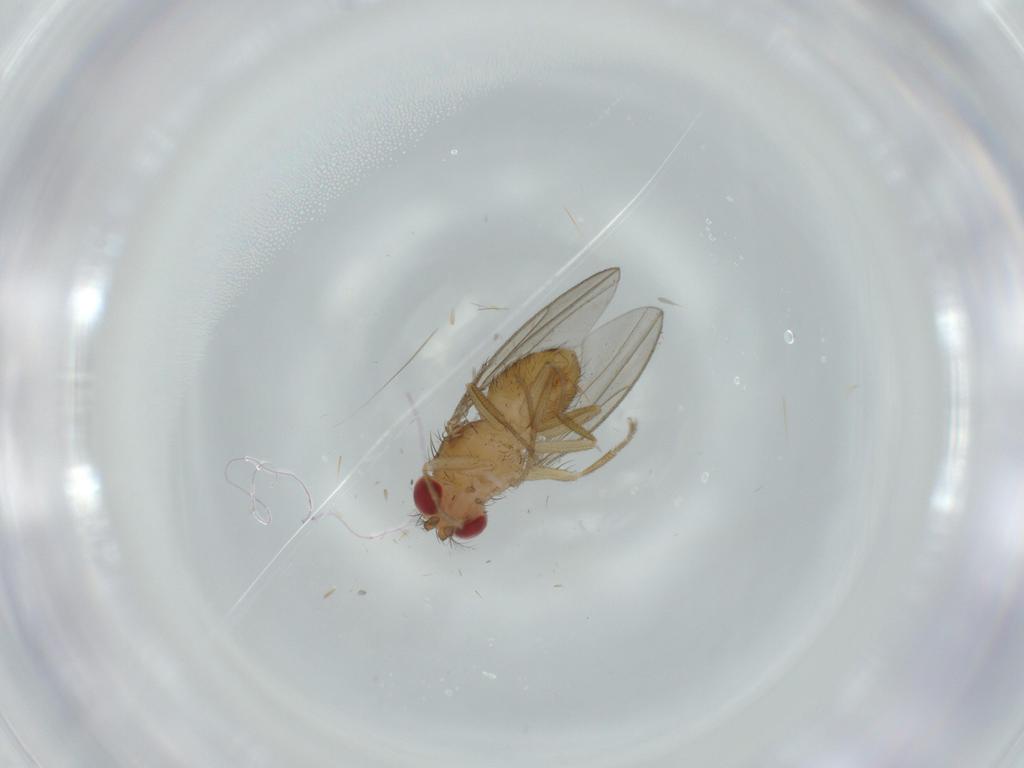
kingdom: Animalia
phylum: Arthropoda
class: Insecta
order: Diptera
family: Drosophilidae
